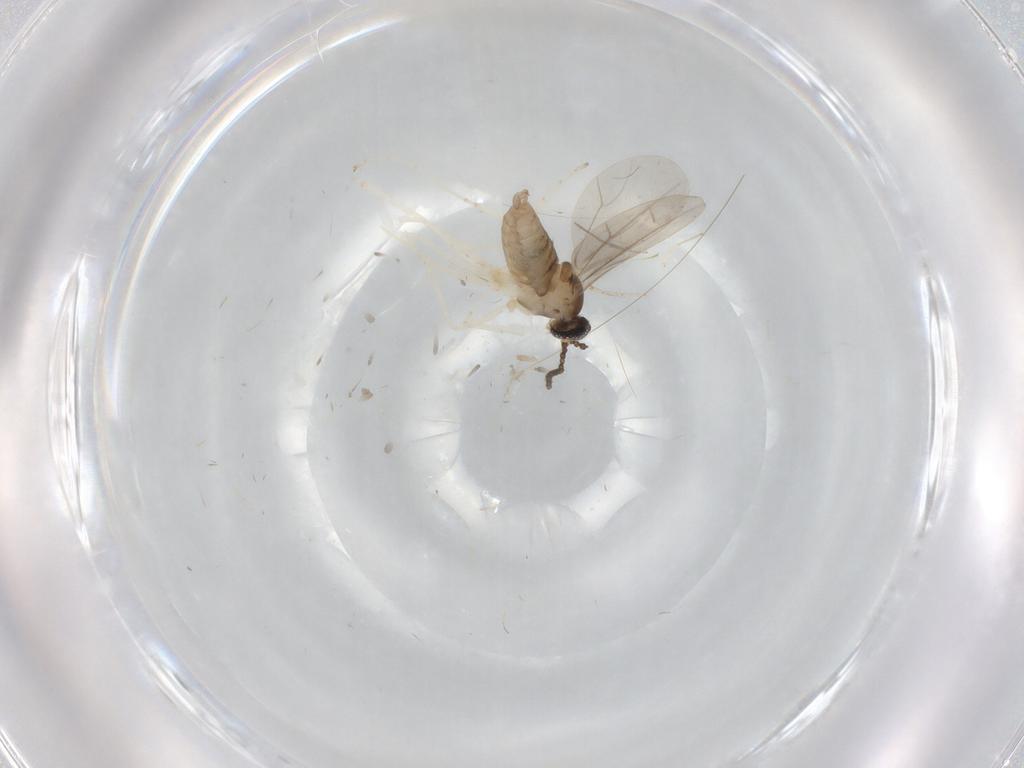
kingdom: Animalia
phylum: Arthropoda
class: Insecta
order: Diptera
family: Chironomidae
